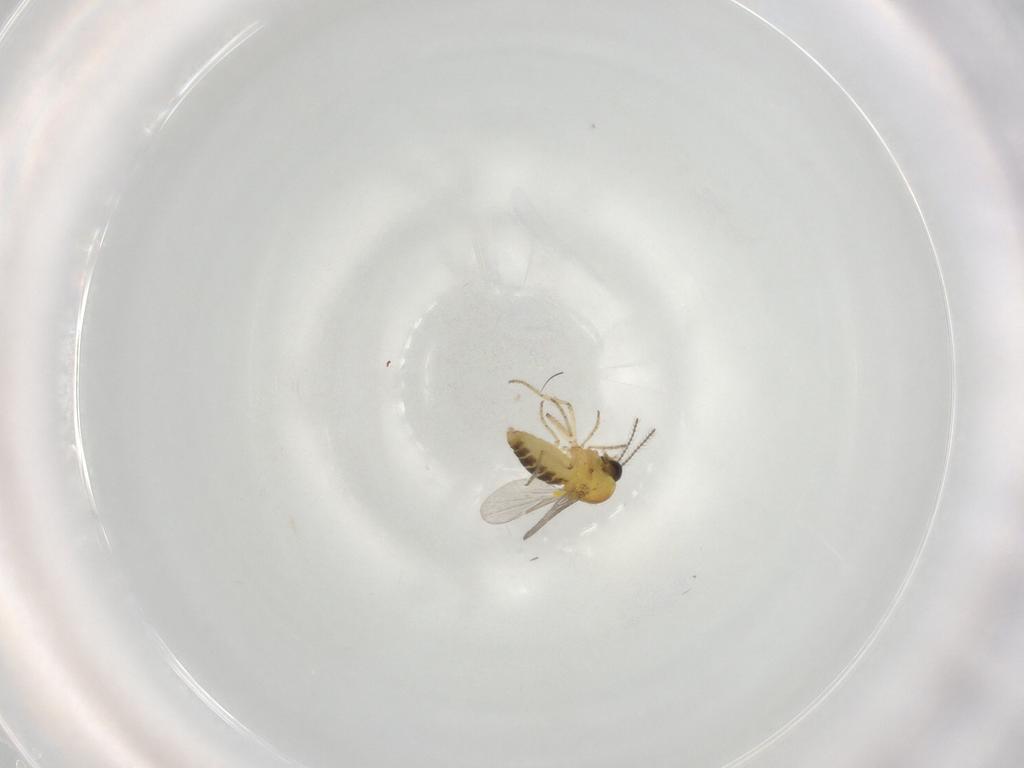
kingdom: Animalia
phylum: Arthropoda
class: Insecta
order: Diptera
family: Ceratopogonidae
